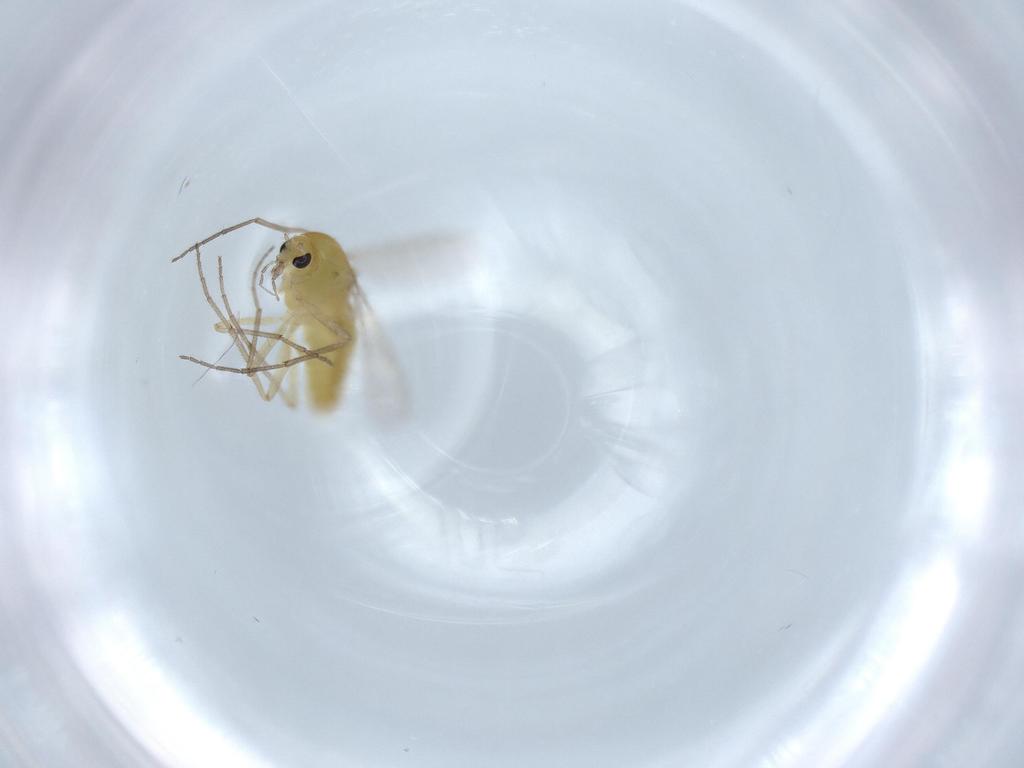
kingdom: Animalia
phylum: Arthropoda
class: Insecta
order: Diptera
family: Chironomidae
